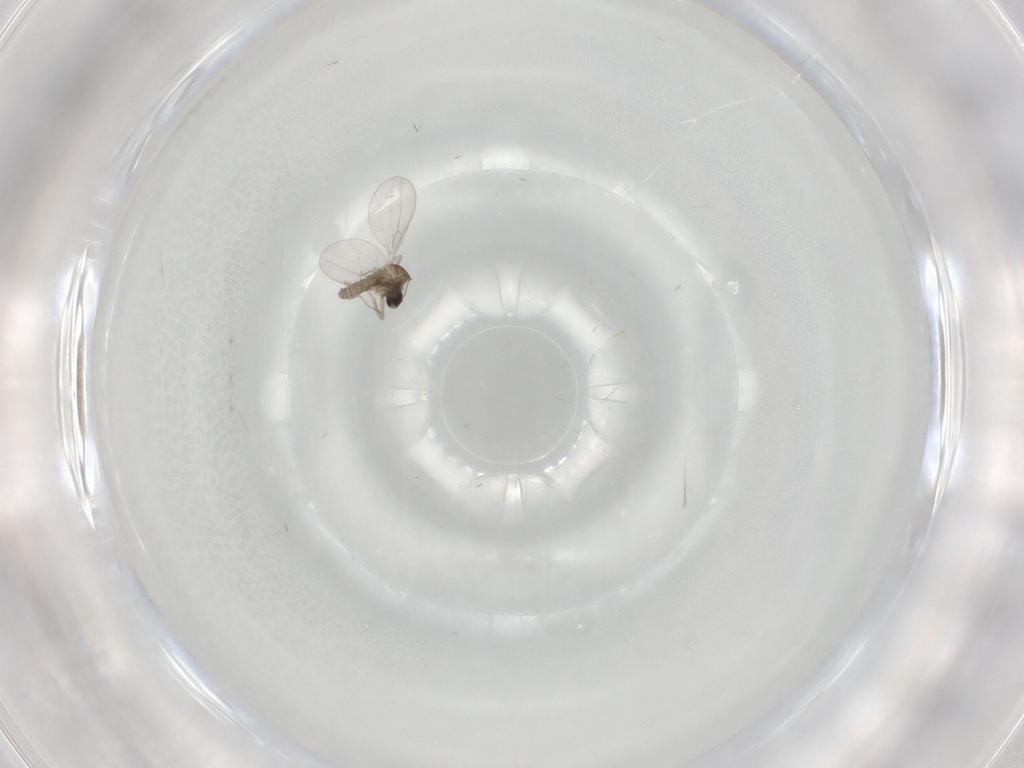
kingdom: Animalia
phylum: Arthropoda
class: Insecta
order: Diptera
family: Cecidomyiidae
